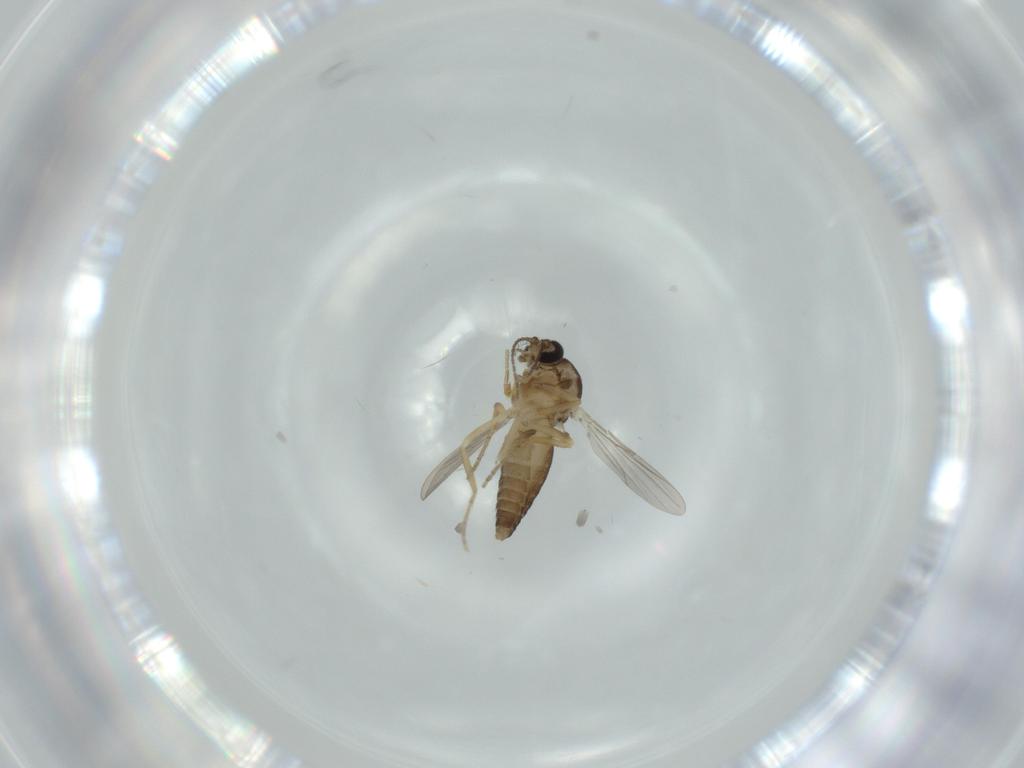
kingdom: Animalia
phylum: Arthropoda
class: Insecta
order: Diptera
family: Ceratopogonidae
